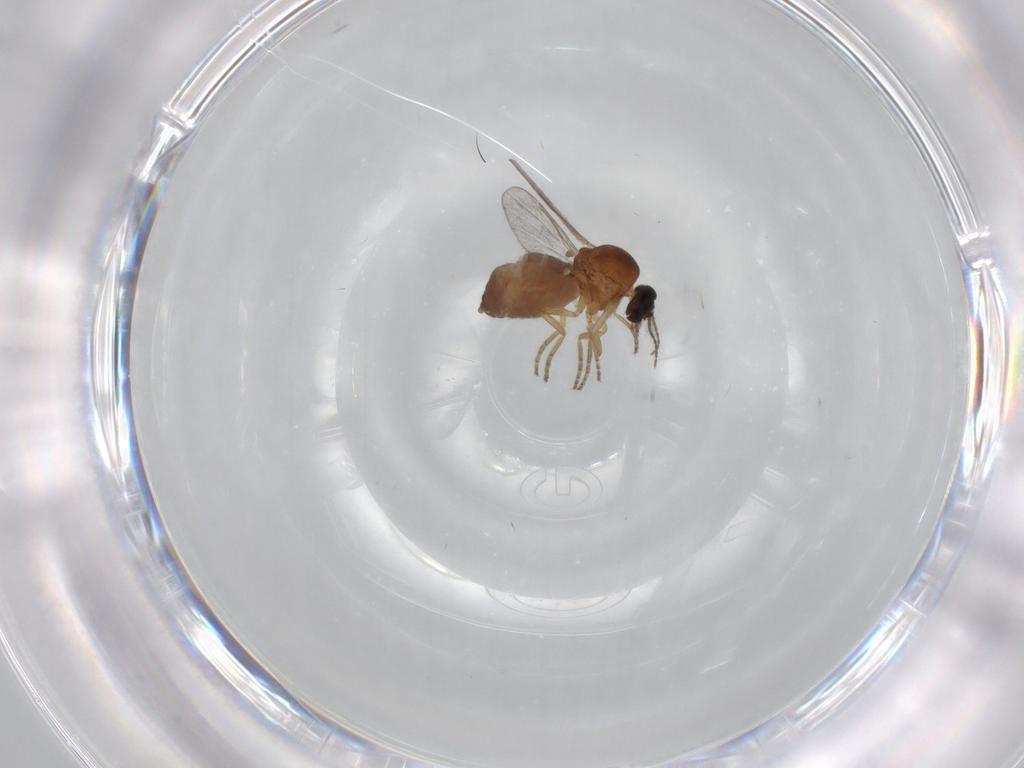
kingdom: Animalia
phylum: Arthropoda
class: Insecta
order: Diptera
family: Ceratopogonidae
